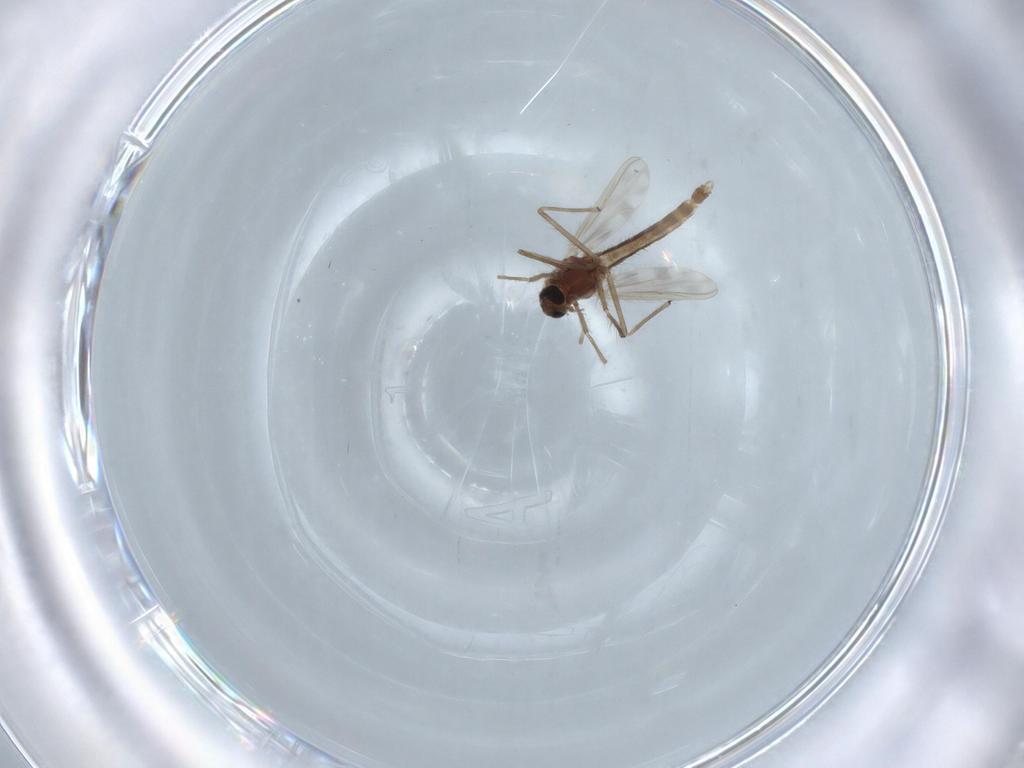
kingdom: Animalia
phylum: Arthropoda
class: Insecta
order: Diptera
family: Chironomidae
